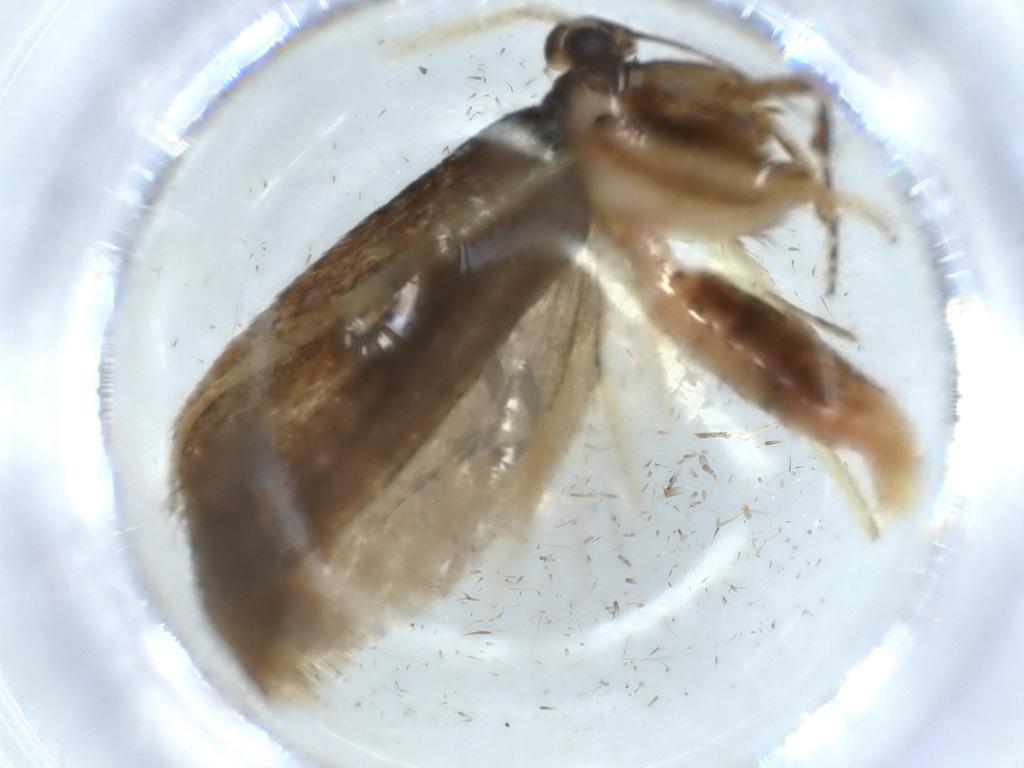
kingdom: Animalia
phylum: Arthropoda
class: Insecta
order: Lepidoptera
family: Lecithoceridae
